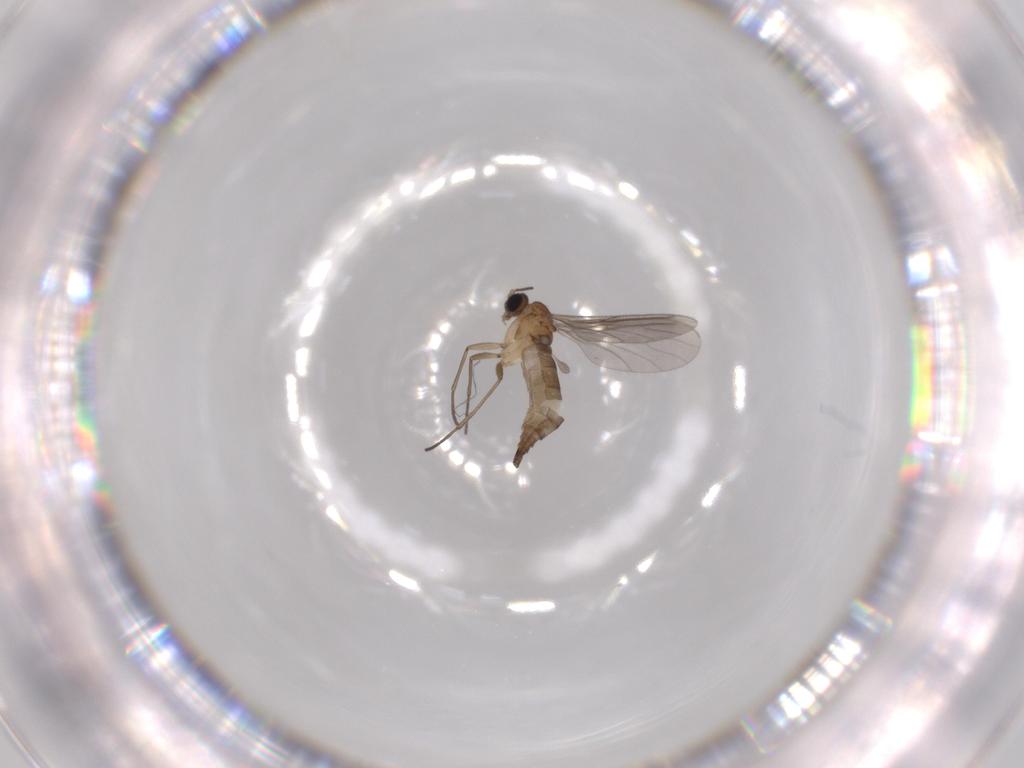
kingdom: Animalia
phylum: Arthropoda
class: Insecta
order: Diptera
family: Sciaridae
